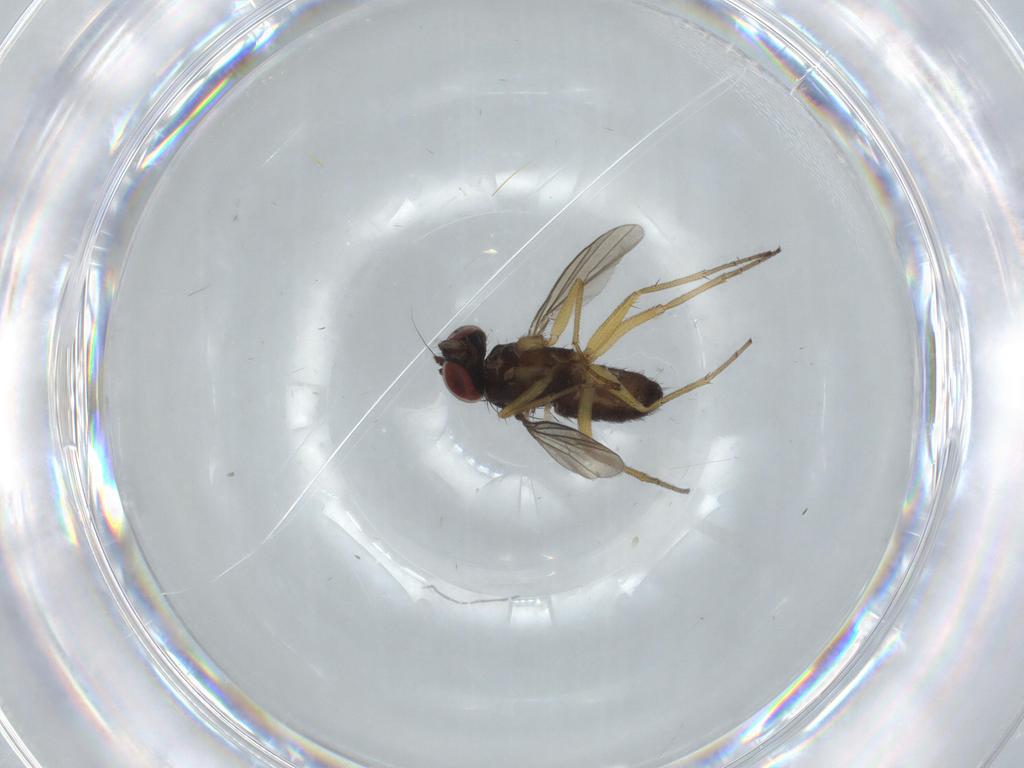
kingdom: Animalia
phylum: Arthropoda
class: Insecta
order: Diptera
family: Dolichopodidae
